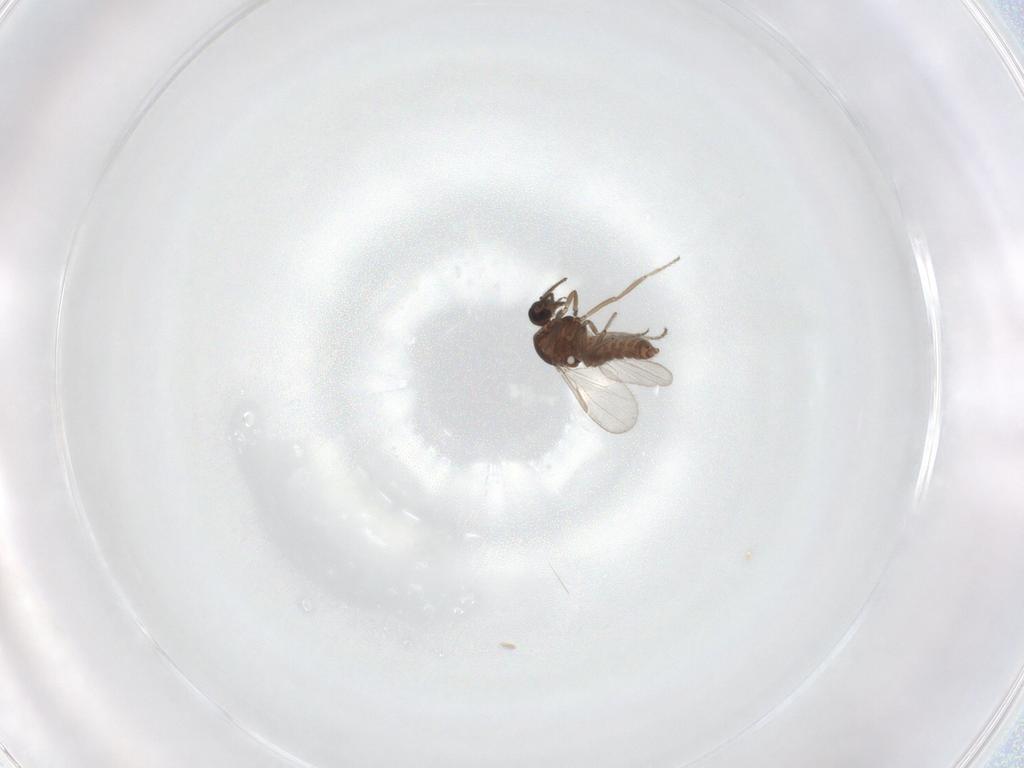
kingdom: Animalia
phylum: Arthropoda
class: Insecta
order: Diptera
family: Ceratopogonidae
